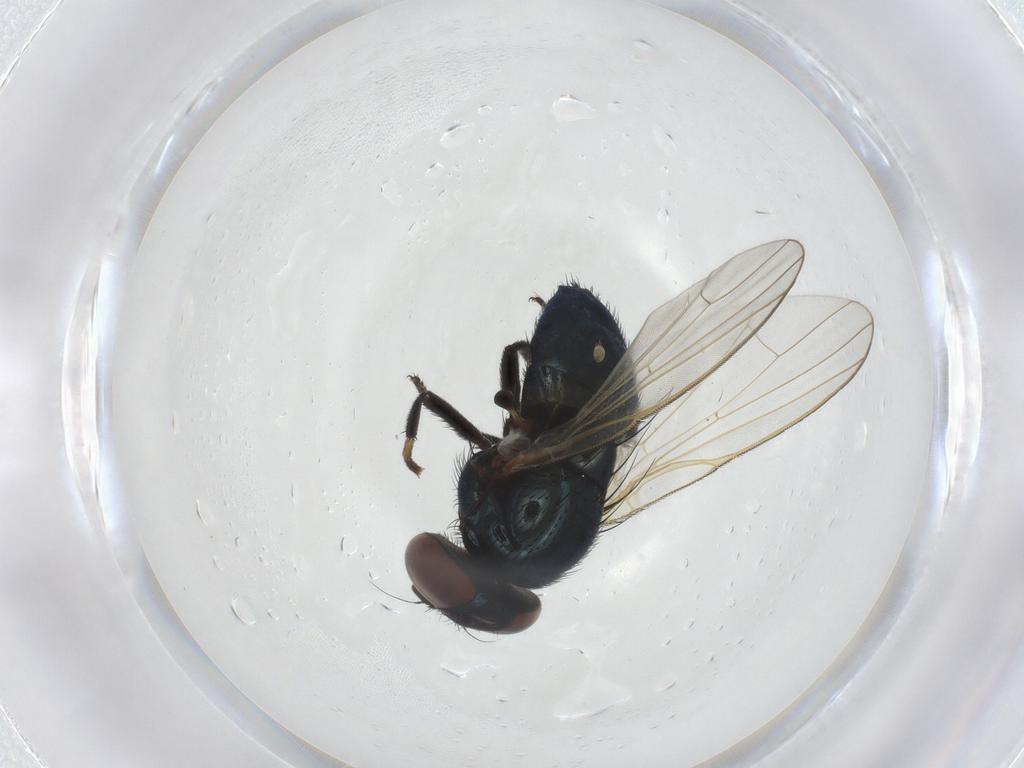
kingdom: Animalia
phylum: Arthropoda
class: Insecta
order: Diptera
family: Lonchaeidae
